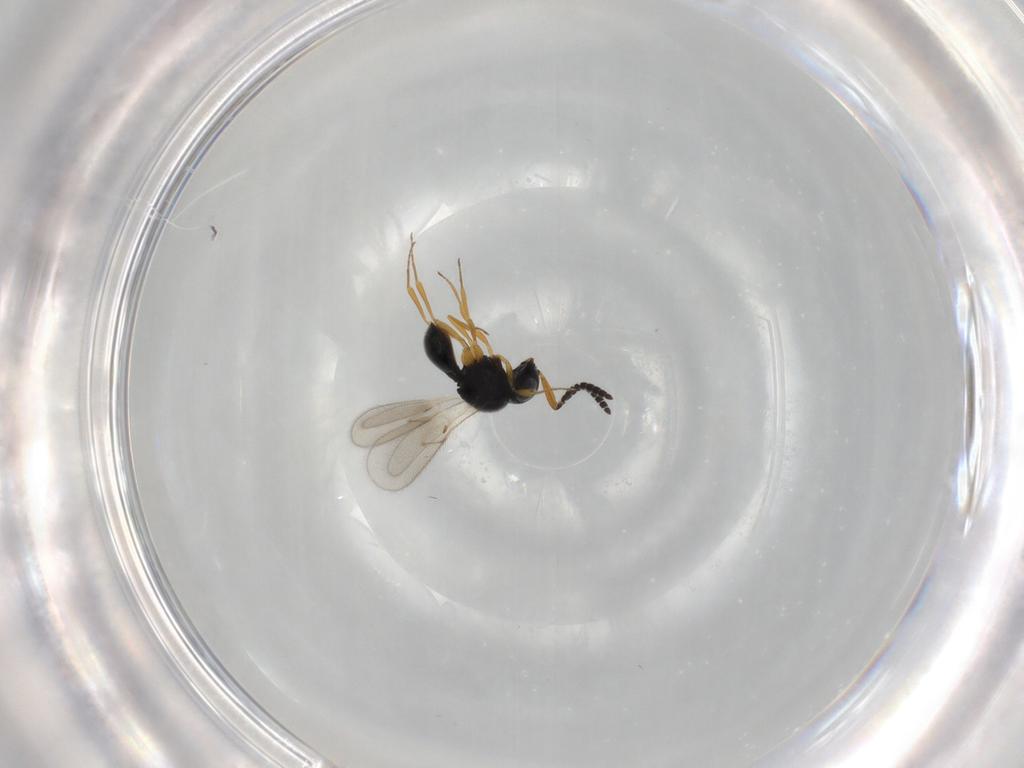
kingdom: Animalia
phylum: Arthropoda
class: Insecta
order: Hymenoptera
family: Scelionidae
